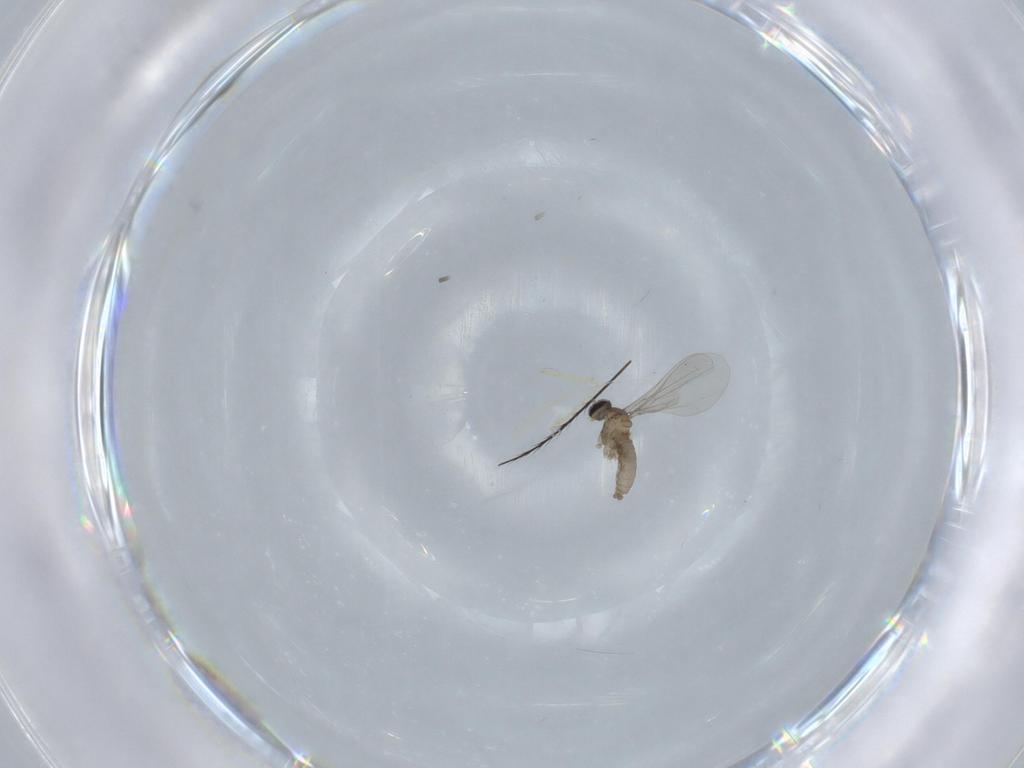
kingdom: Animalia
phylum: Arthropoda
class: Insecta
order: Diptera
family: Cecidomyiidae
